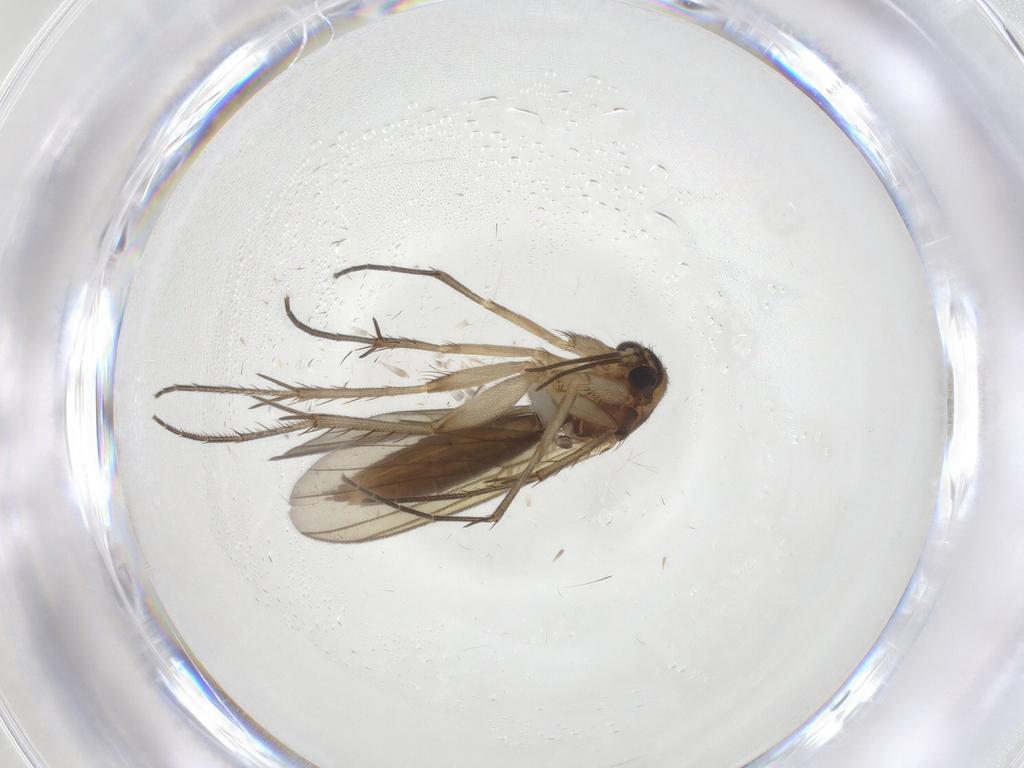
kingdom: Animalia
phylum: Arthropoda
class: Insecta
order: Diptera
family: Mycetophilidae
